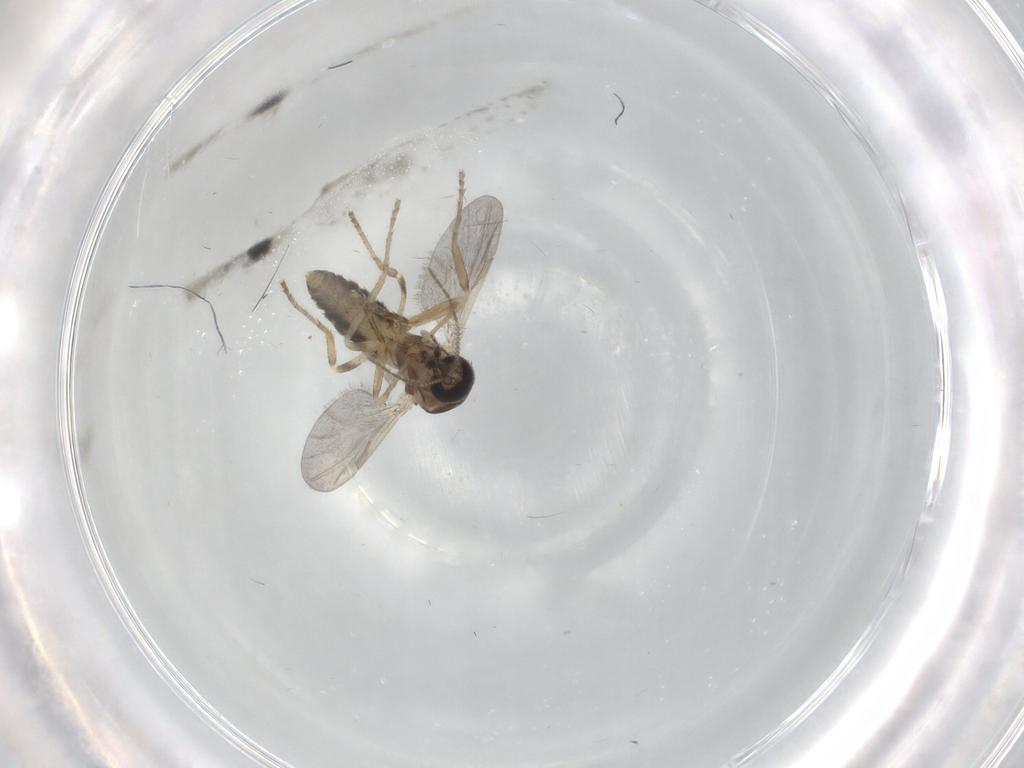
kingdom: Animalia
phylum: Arthropoda
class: Insecta
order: Diptera
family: Ceratopogonidae
